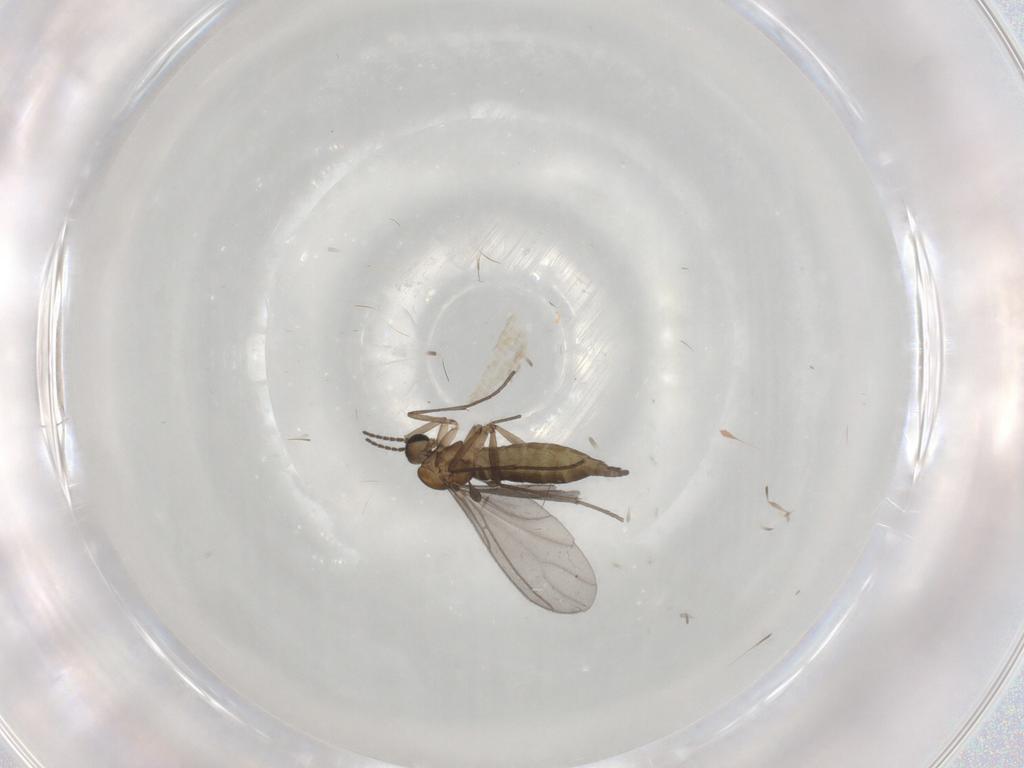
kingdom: Animalia
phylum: Arthropoda
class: Insecta
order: Diptera
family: Sciaridae
